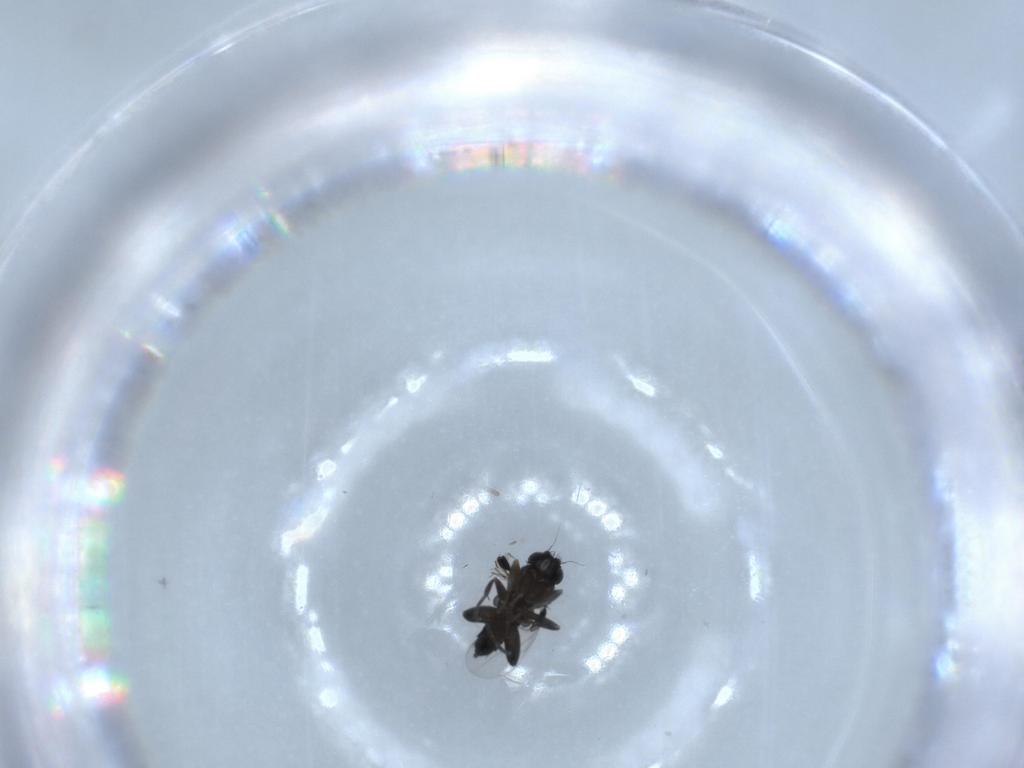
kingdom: Animalia
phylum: Arthropoda
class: Insecta
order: Diptera
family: Phoridae
